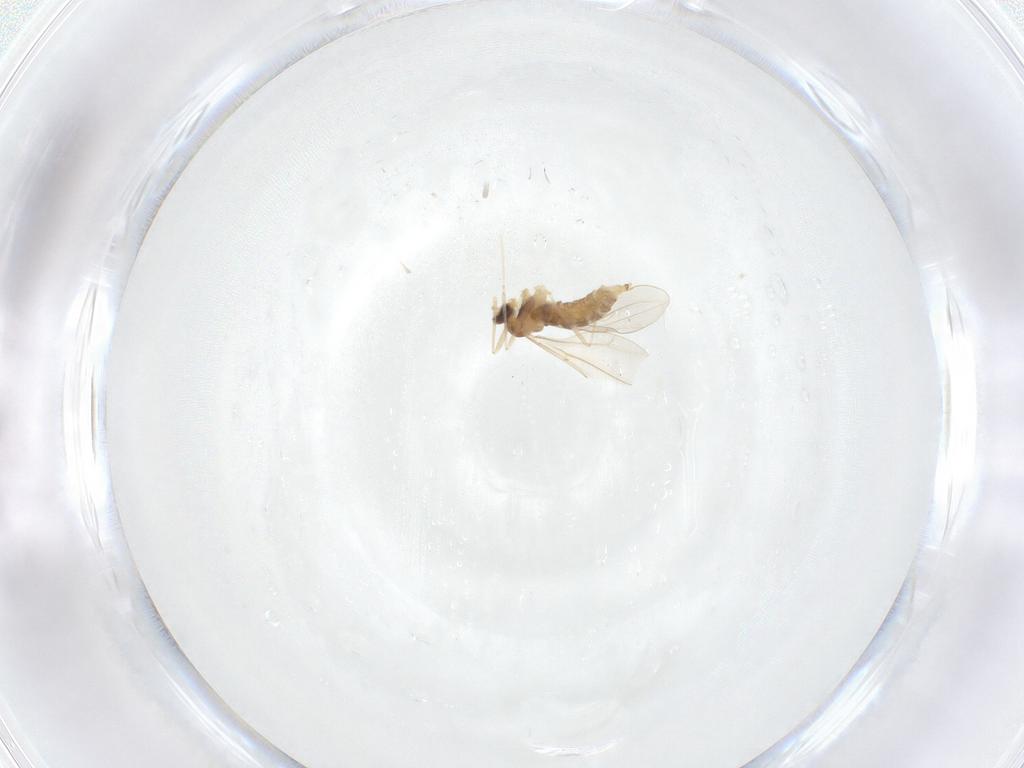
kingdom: Animalia
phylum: Arthropoda
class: Insecta
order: Diptera
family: Cecidomyiidae
